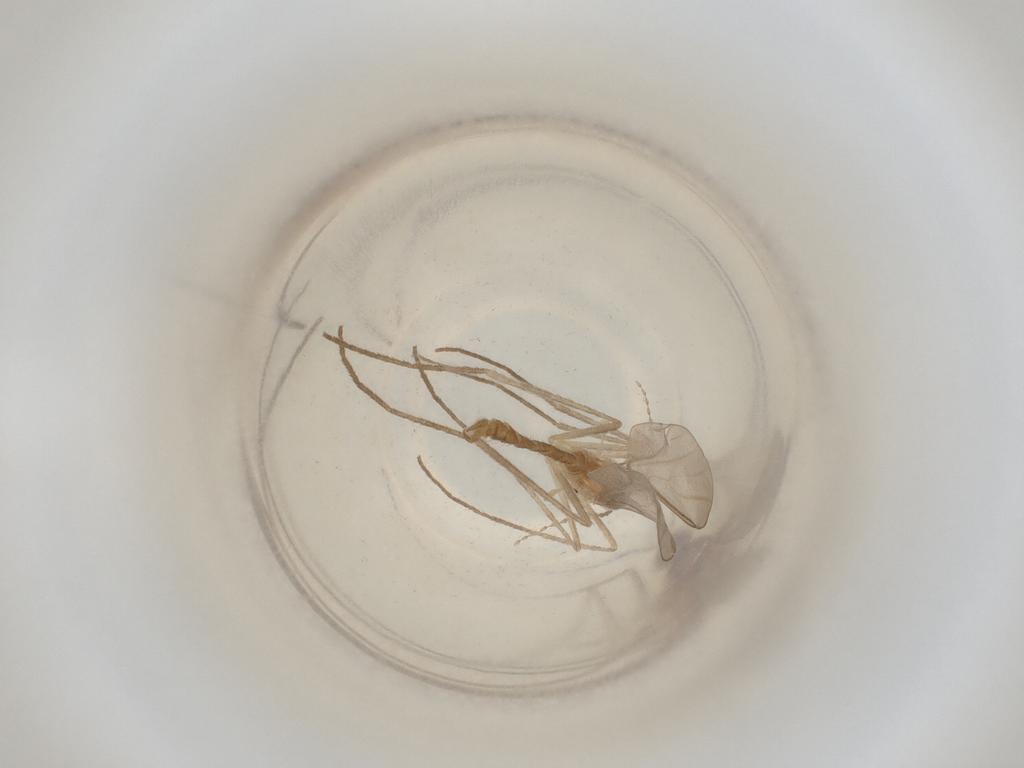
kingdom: Animalia
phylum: Arthropoda
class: Insecta
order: Diptera
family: Cecidomyiidae
